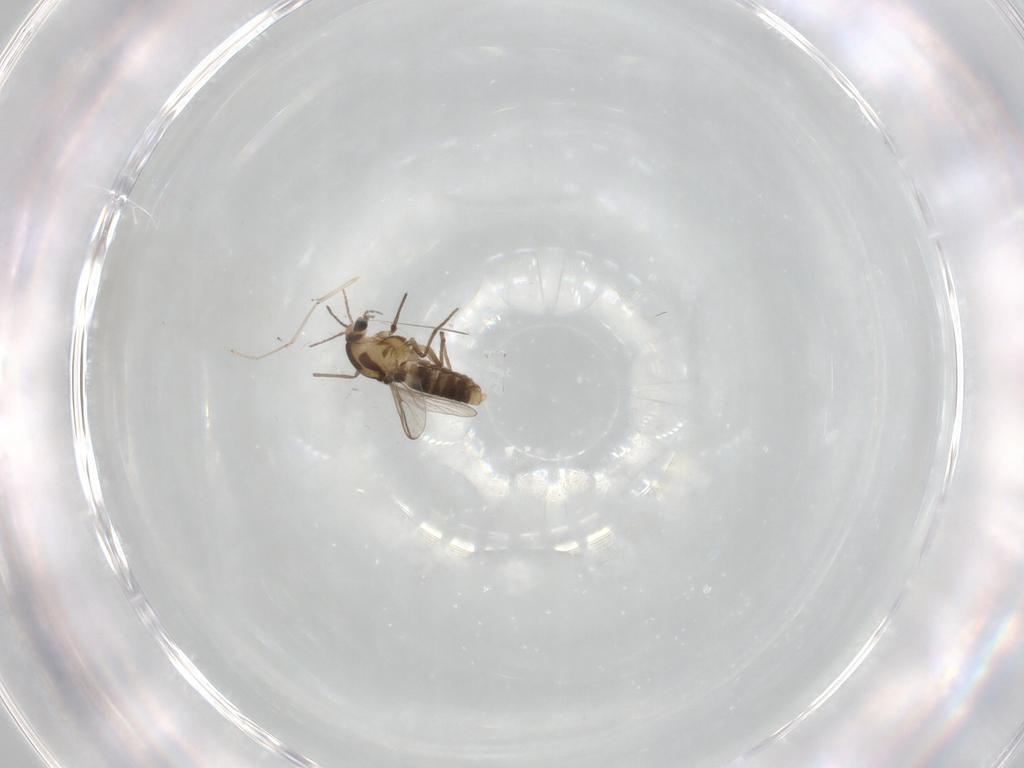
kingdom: Animalia
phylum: Arthropoda
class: Insecta
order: Diptera
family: Chironomidae
